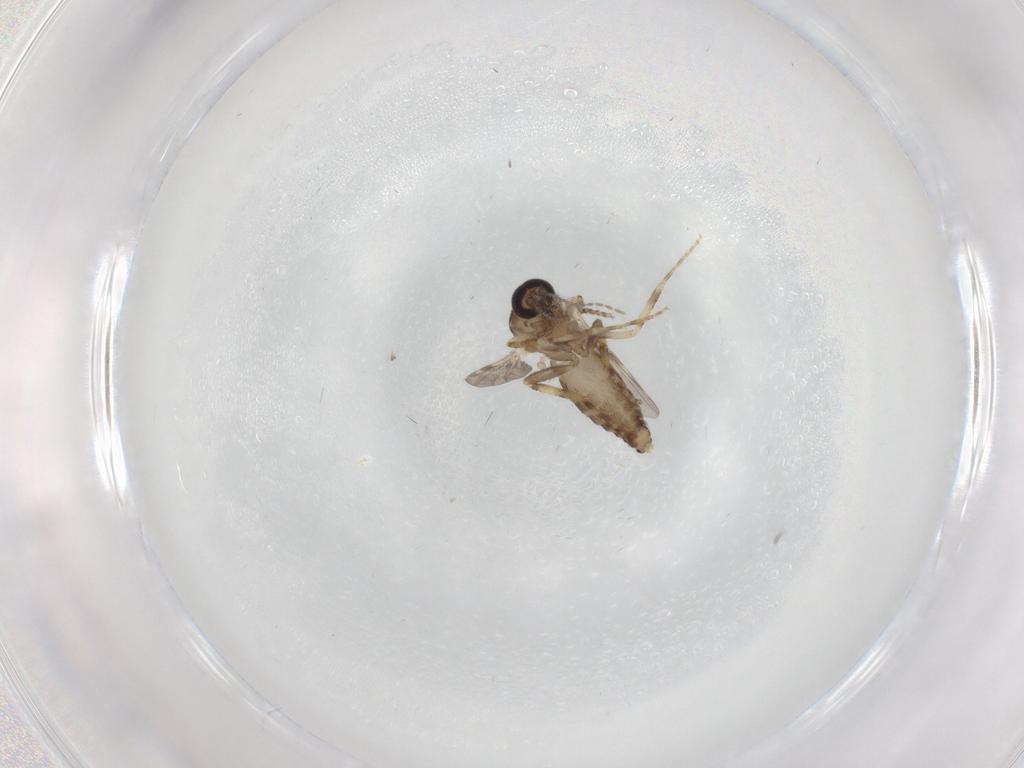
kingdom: Animalia
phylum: Arthropoda
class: Insecta
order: Diptera
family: Ceratopogonidae
